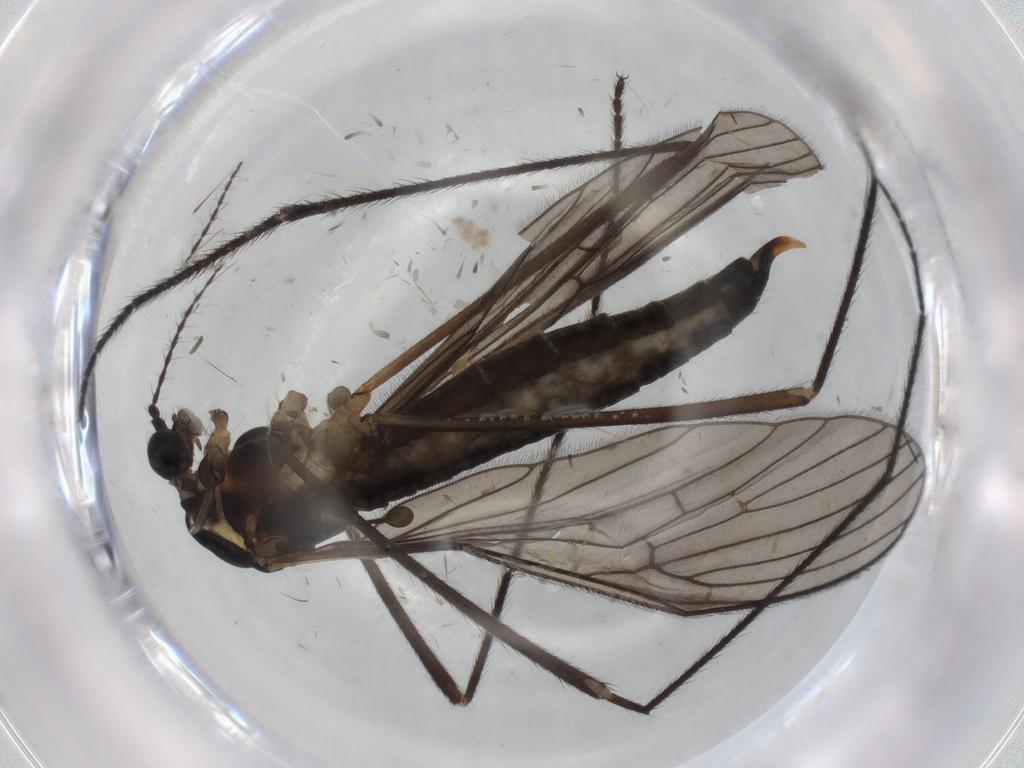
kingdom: Animalia
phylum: Arthropoda
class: Insecta
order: Diptera
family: Limoniidae
